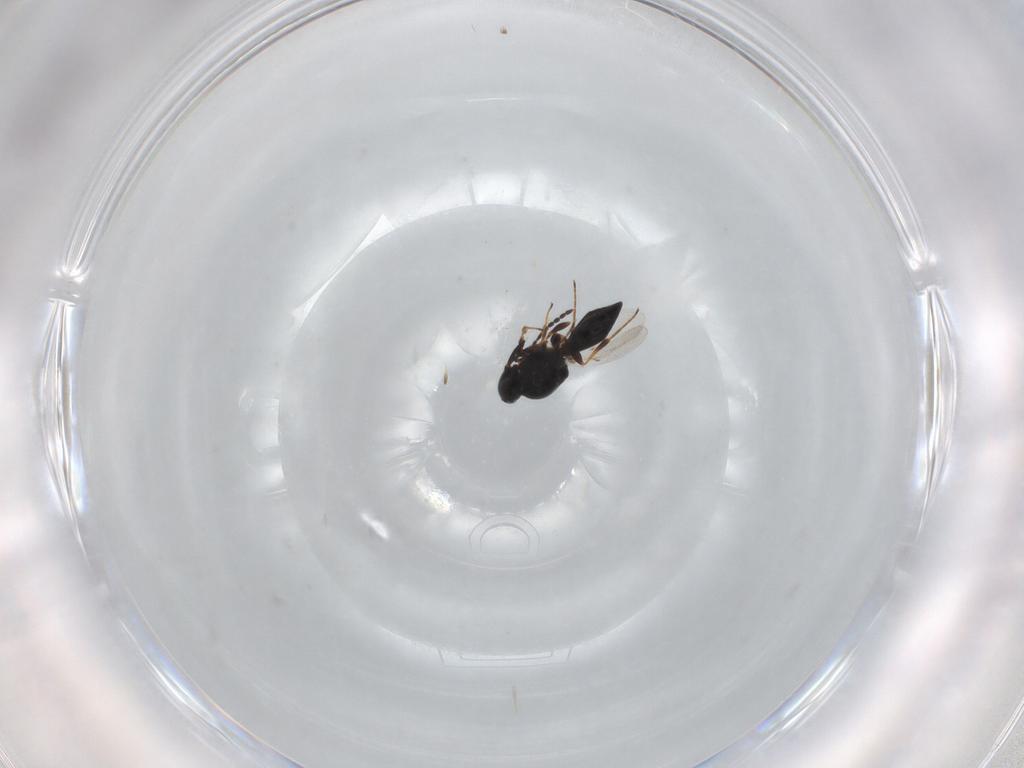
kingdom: Animalia
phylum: Arthropoda
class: Insecta
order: Hymenoptera
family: Platygastridae
